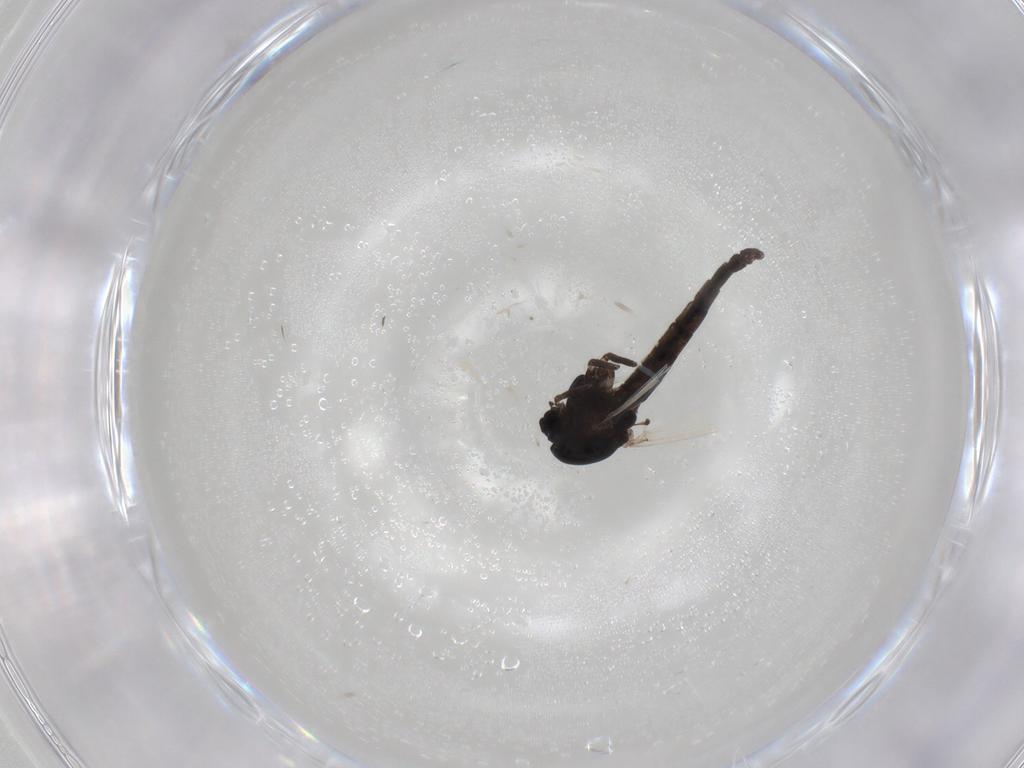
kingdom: Animalia
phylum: Arthropoda
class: Insecta
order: Diptera
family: Chironomidae
